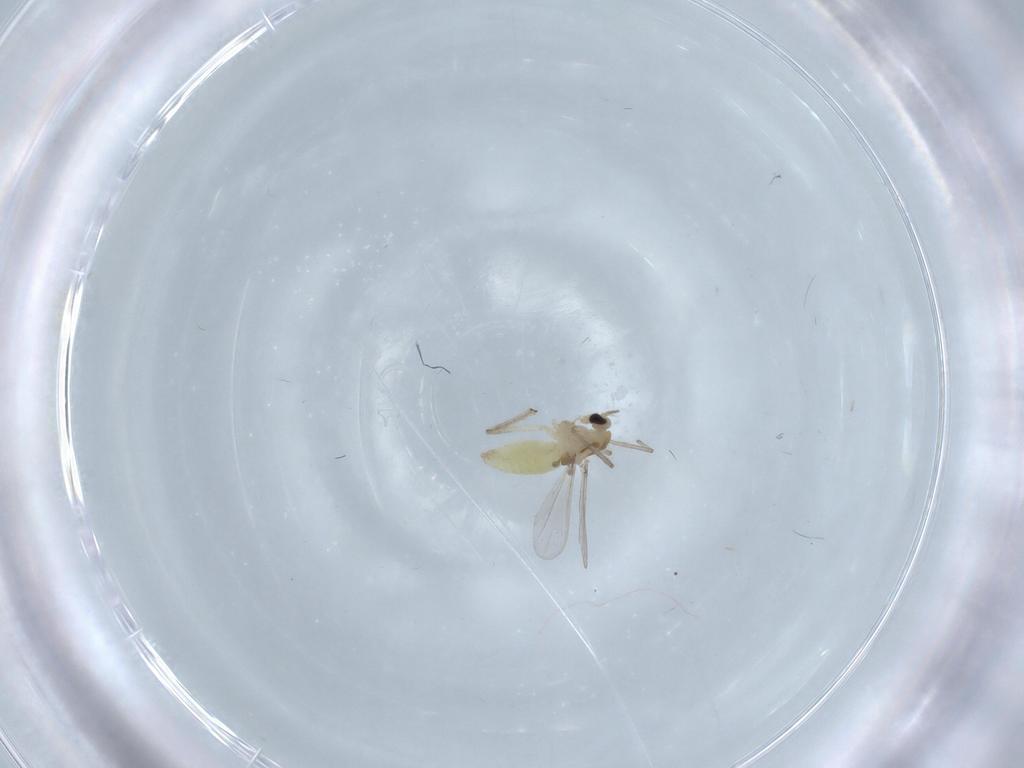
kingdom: Animalia
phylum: Arthropoda
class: Insecta
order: Diptera
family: Chironomidae
